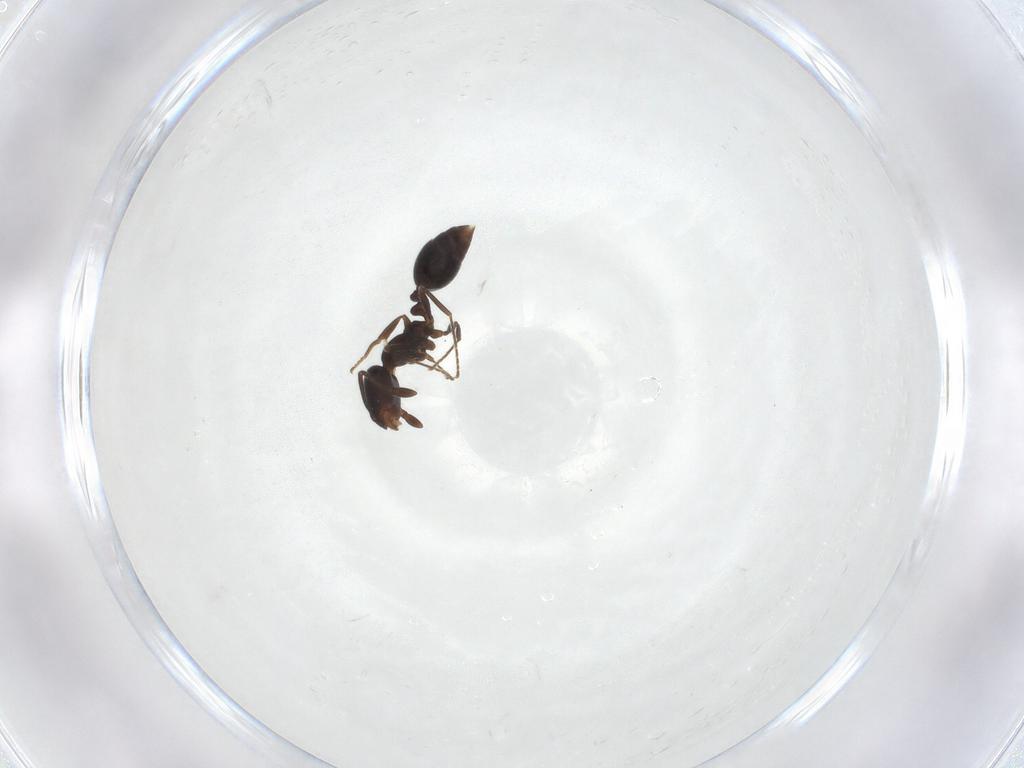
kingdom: Animalia
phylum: Arthropoda
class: Insecta
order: Hymenoptera
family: Formicidae
